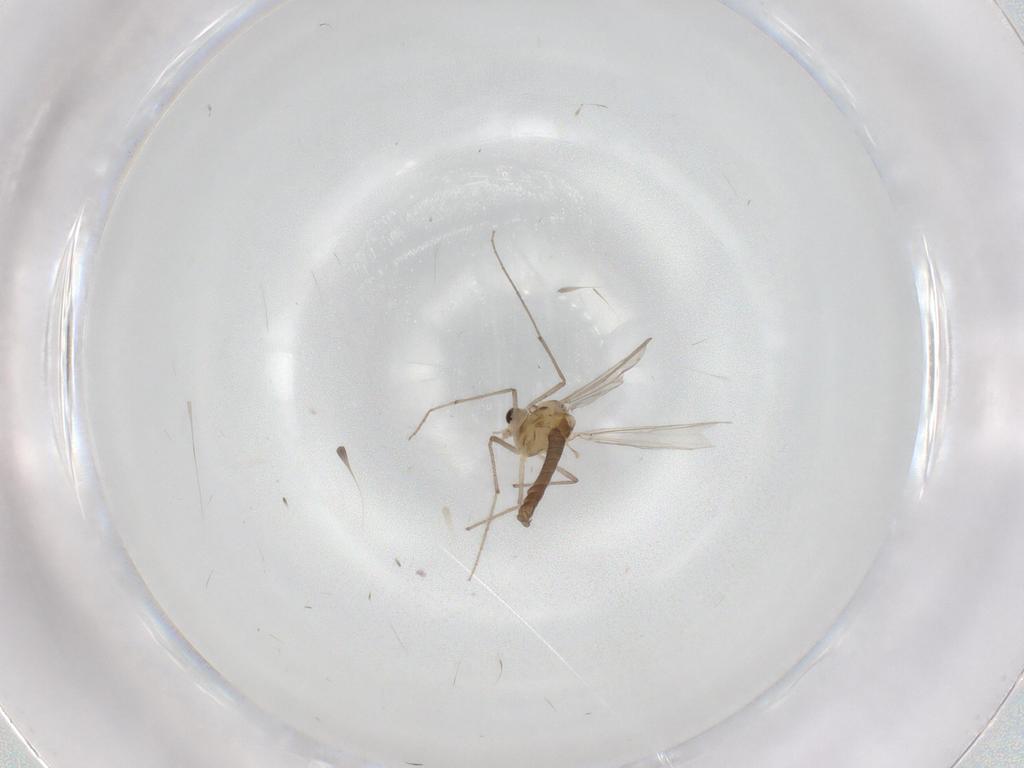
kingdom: Animalia
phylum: Arthropoda
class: Insecta
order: Diptera
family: Chironomidae
